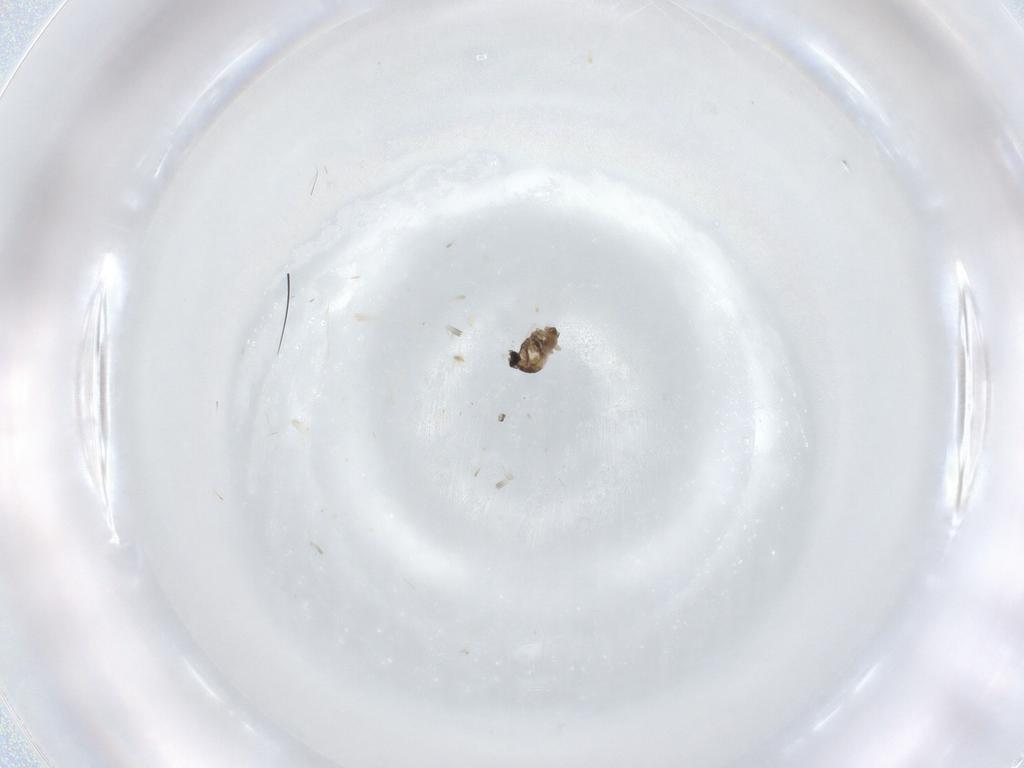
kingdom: Animalia
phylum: Arthropoda
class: Insecta
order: Diptera
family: Cecidomyiidae
